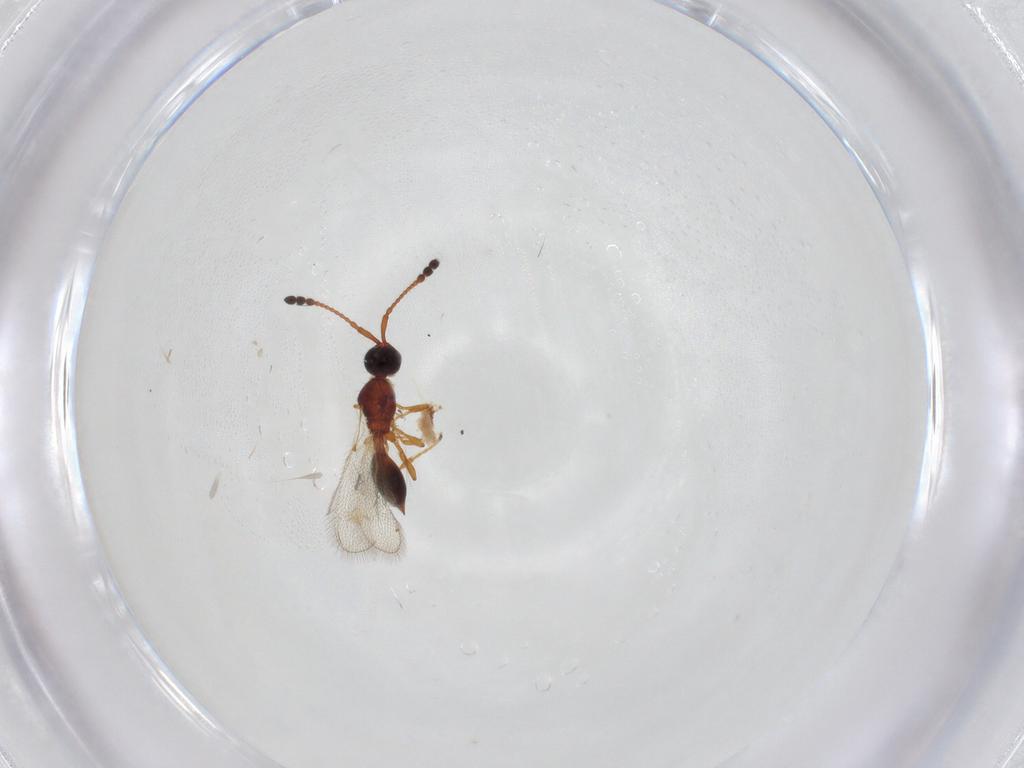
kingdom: Animalia
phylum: Arthropoda
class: Insecta
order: Hymenoptera
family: Diapriidae
